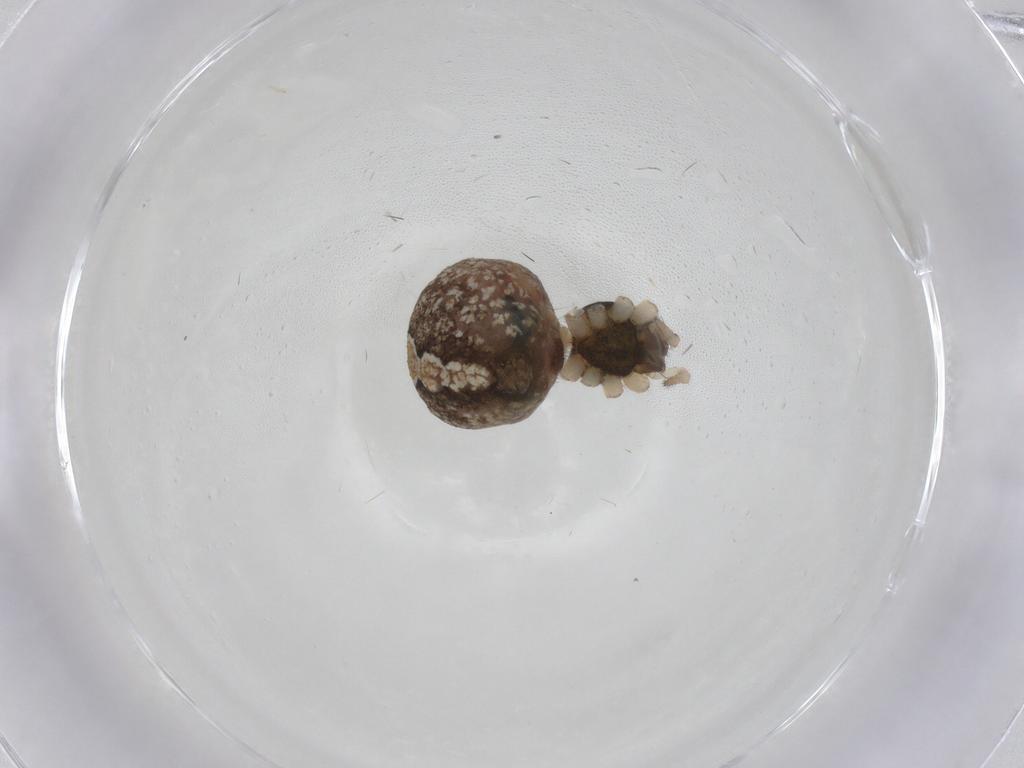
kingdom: Animalia
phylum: Arthropoda
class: Arachnida
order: Araneae
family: Theridiidae
